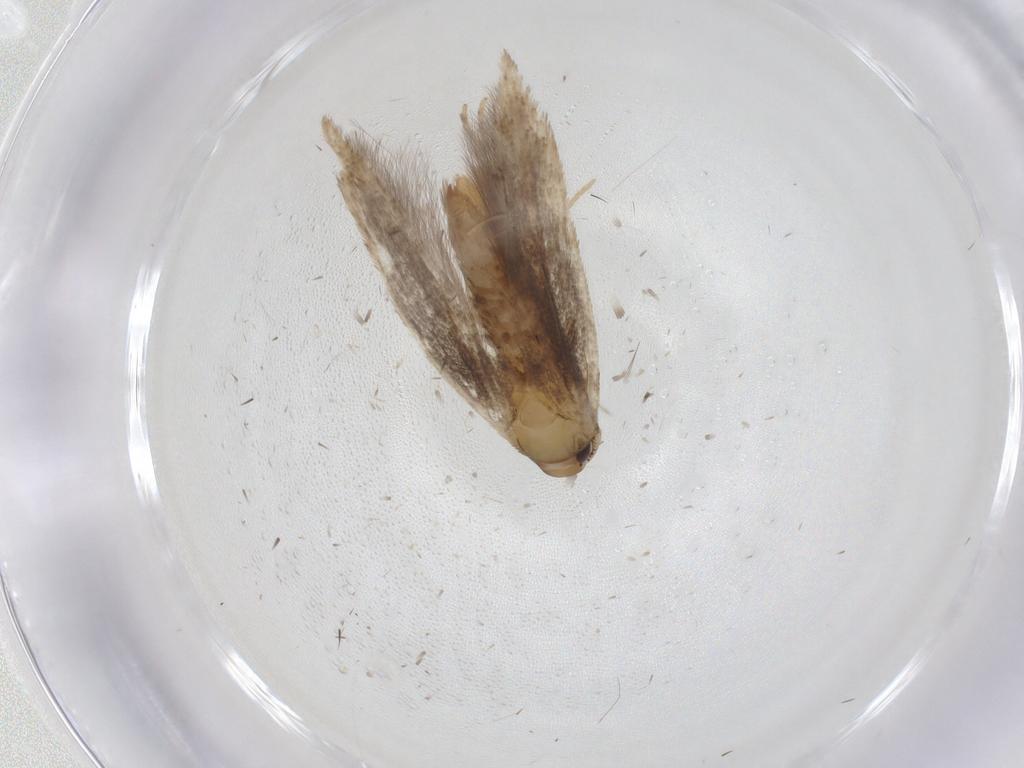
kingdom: Animalia
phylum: Arthropoda
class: Insecta
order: Lepidoptera
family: Cosmopterigidae
